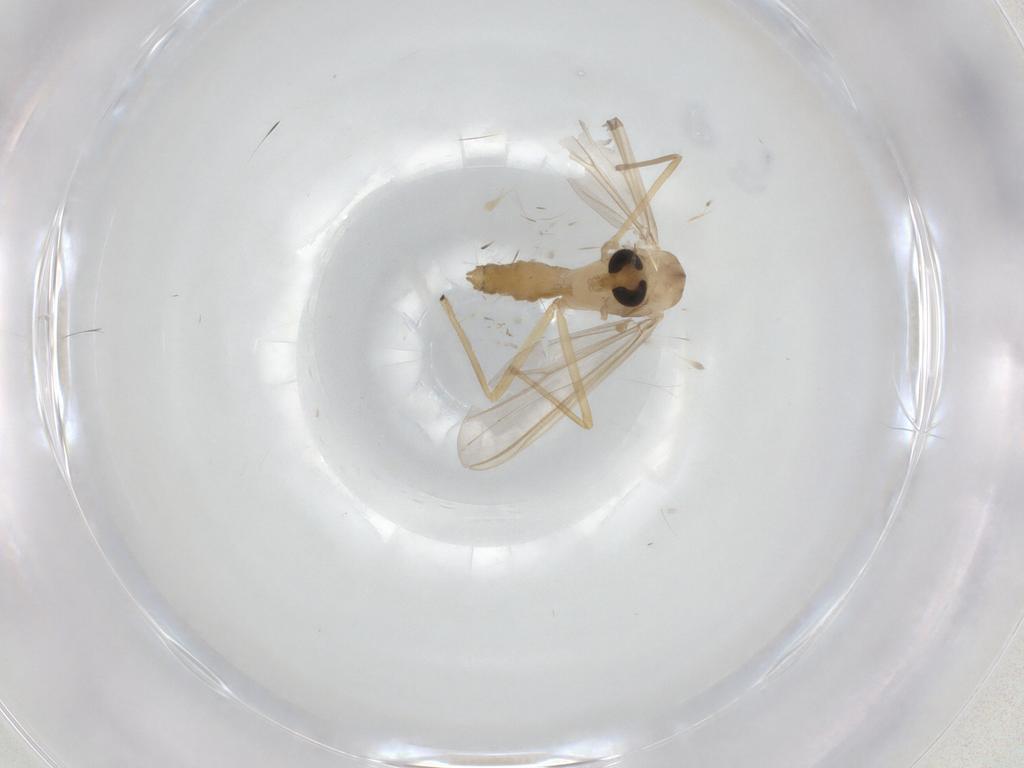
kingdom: Animalia
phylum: Arthropoda
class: Insecta
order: Diptera
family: Chironomidae
